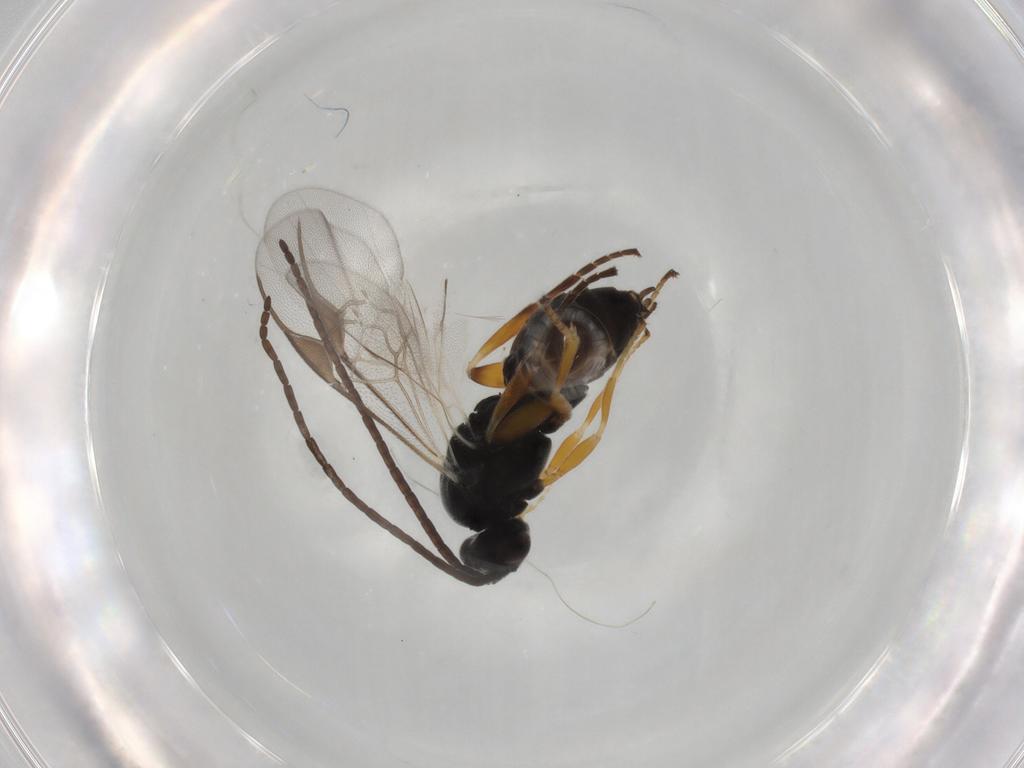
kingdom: Animalia
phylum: Arthropoda
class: Insecta
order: Hymenoptera
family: Braconidae
